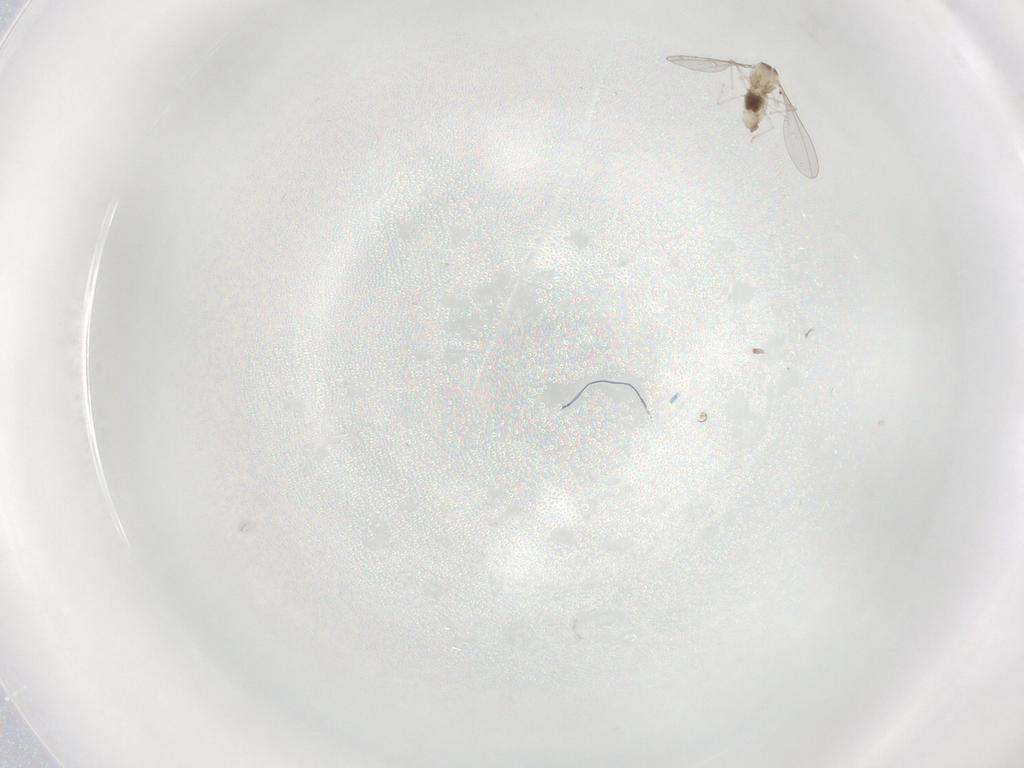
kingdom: Animalia
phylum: Arthropoda
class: Insecta
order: Diptera
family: Cecidomyiidae
